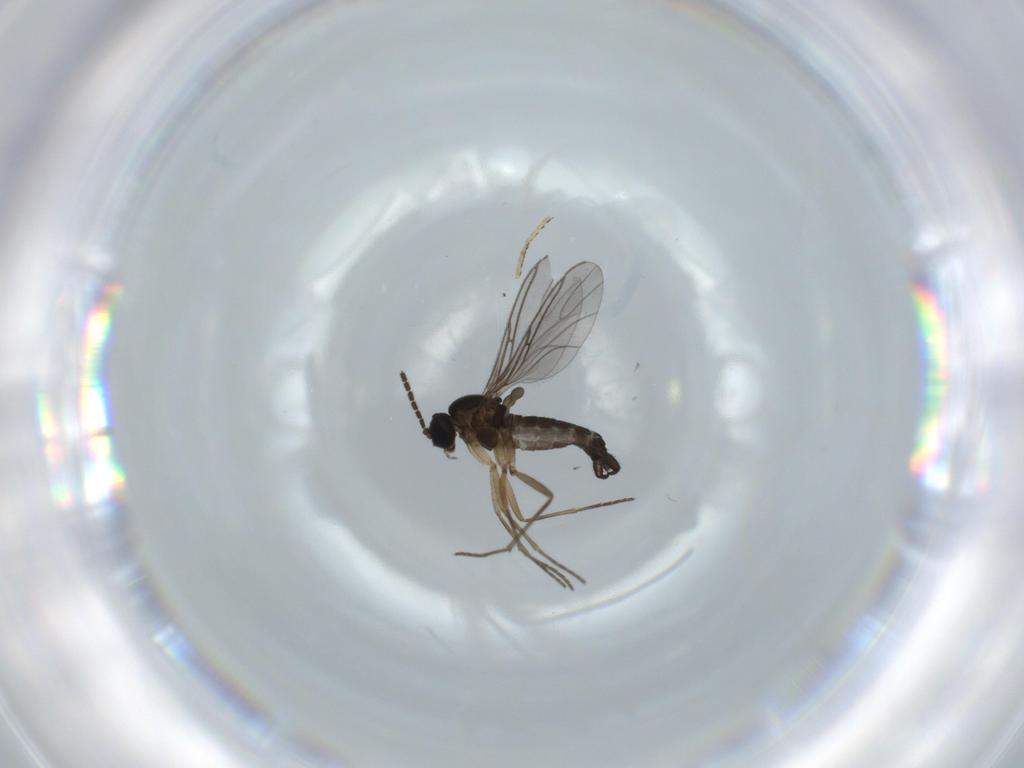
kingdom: Animalia
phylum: Arthropoda
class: Insecta
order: Diptera
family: Dolichopodidae
